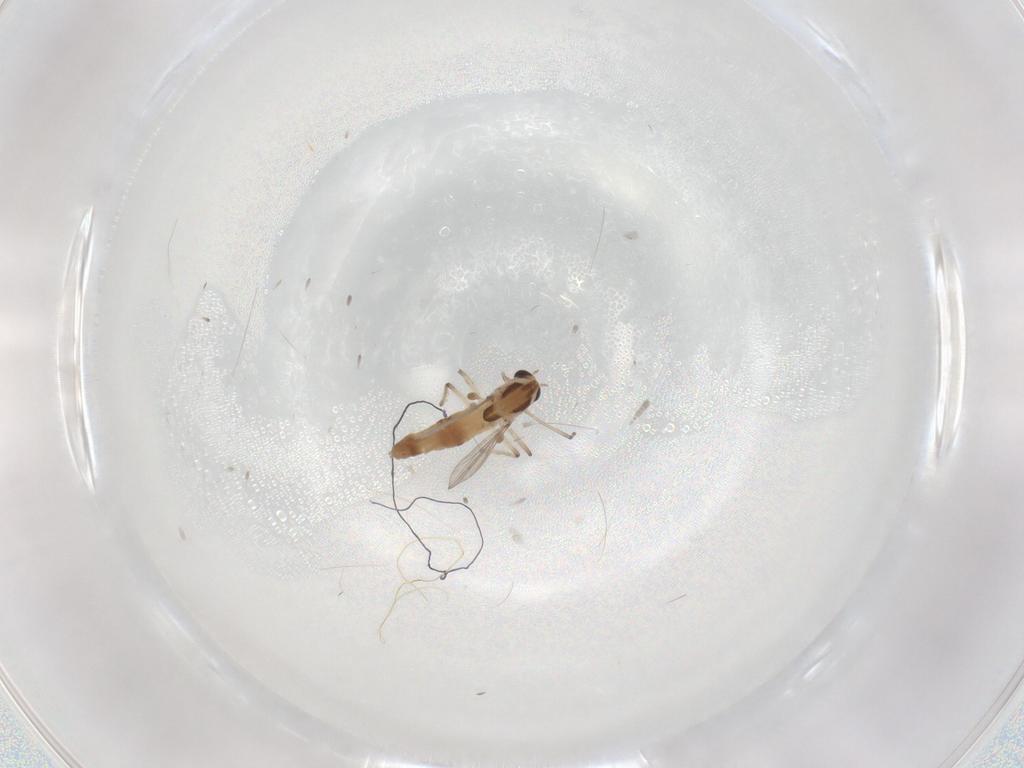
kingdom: Animalia
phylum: Arthropoda
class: Insecta
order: Diptera
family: Chironomidae
